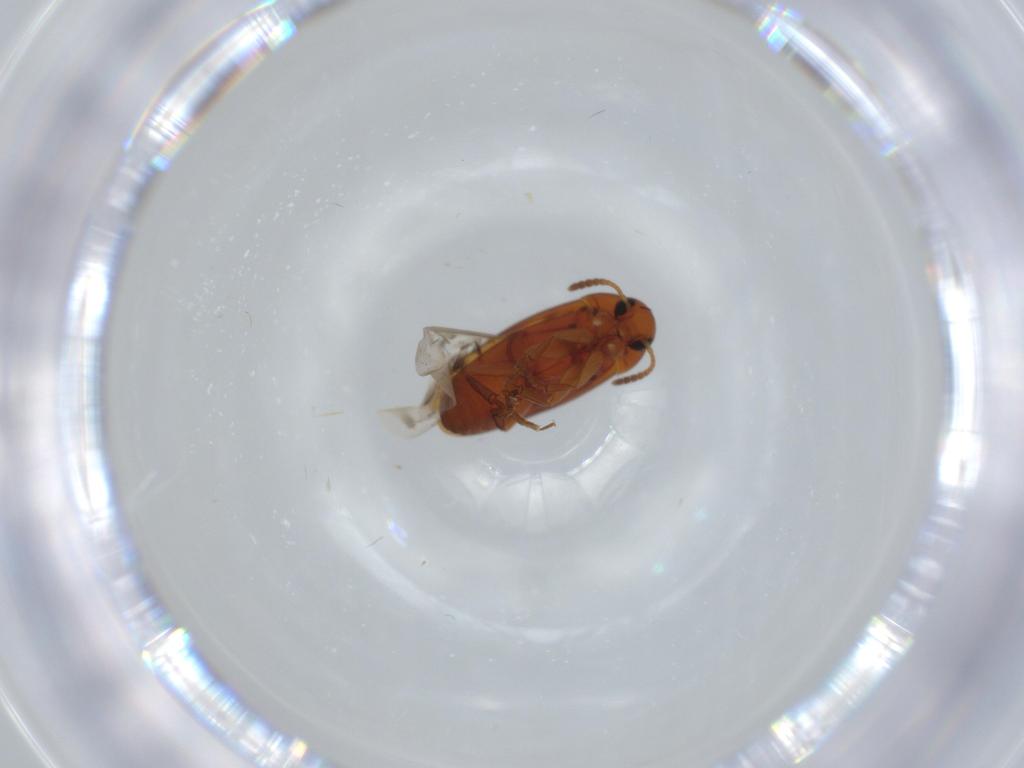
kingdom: Animalia
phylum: Arthropoda
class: Insecta
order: Coleoptera
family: Scraptiidae
